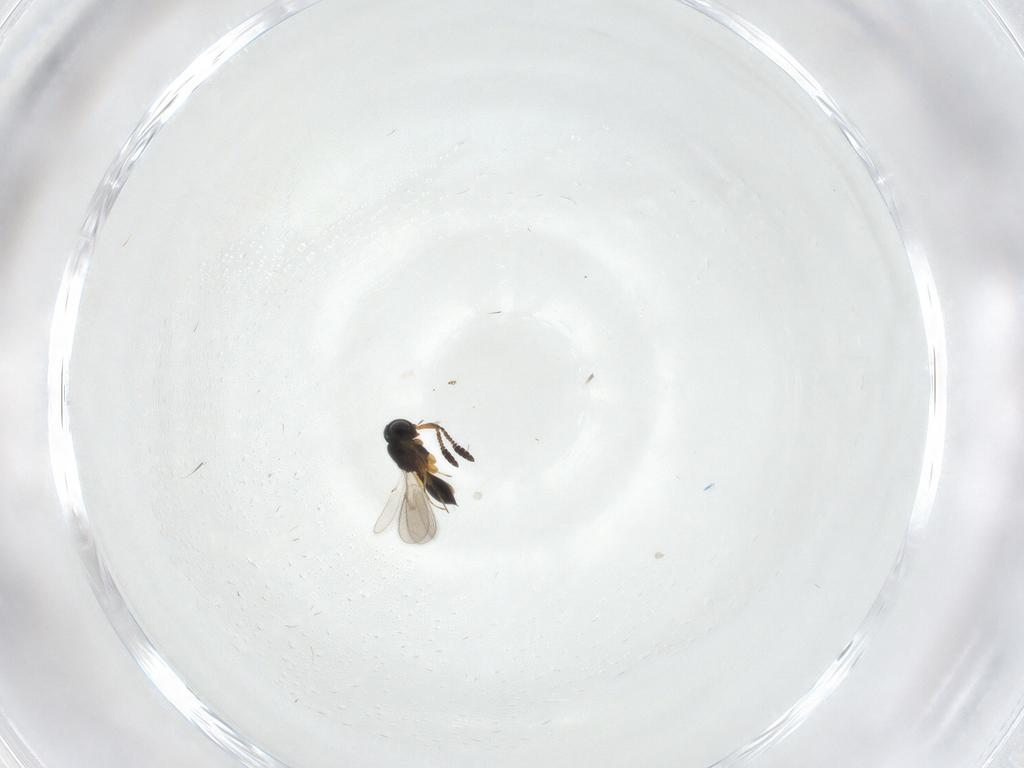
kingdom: Animalia
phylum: Arthropoda
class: Insecta
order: Hymenoptera
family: Scelionidae
